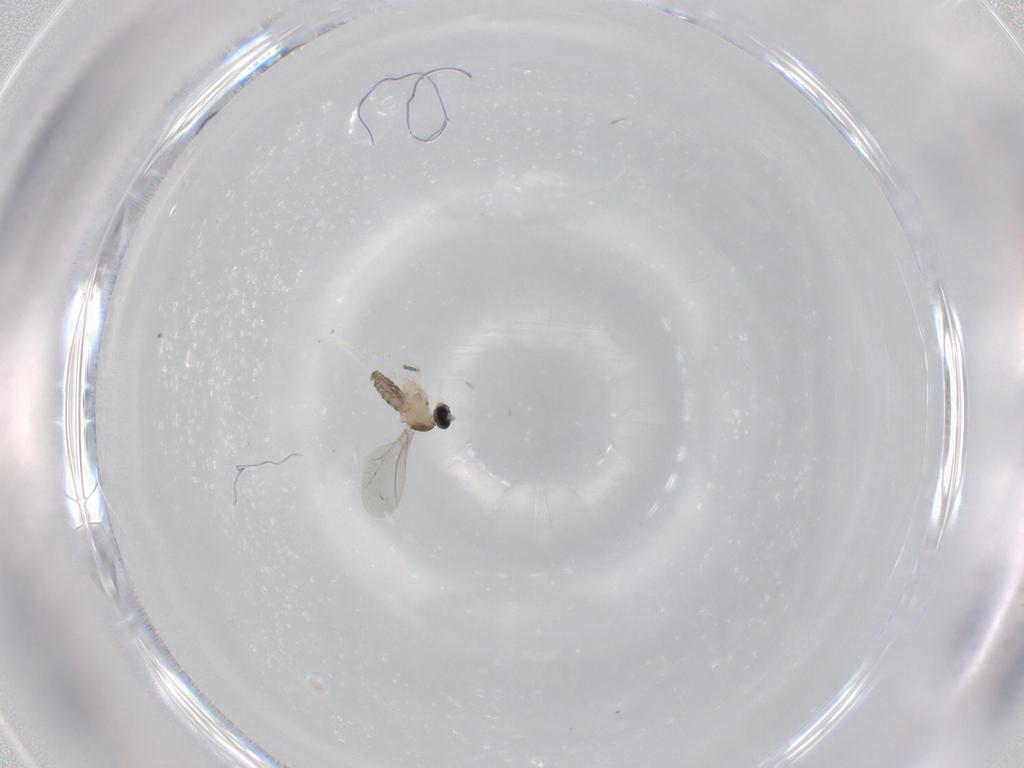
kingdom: Animalia
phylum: Arthropoda
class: Insecta
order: Diptera
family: Cecidomyiidae
